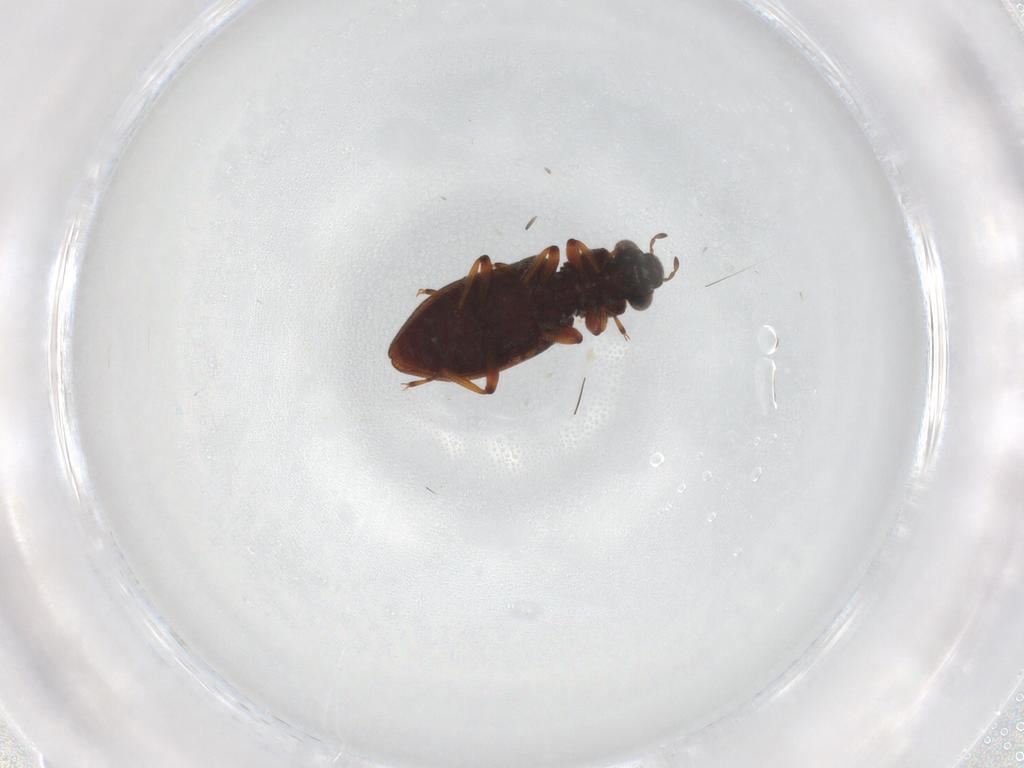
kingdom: Animalia
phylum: Arthropoda
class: Insecta
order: Coleoptera
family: Hydrophilidae
